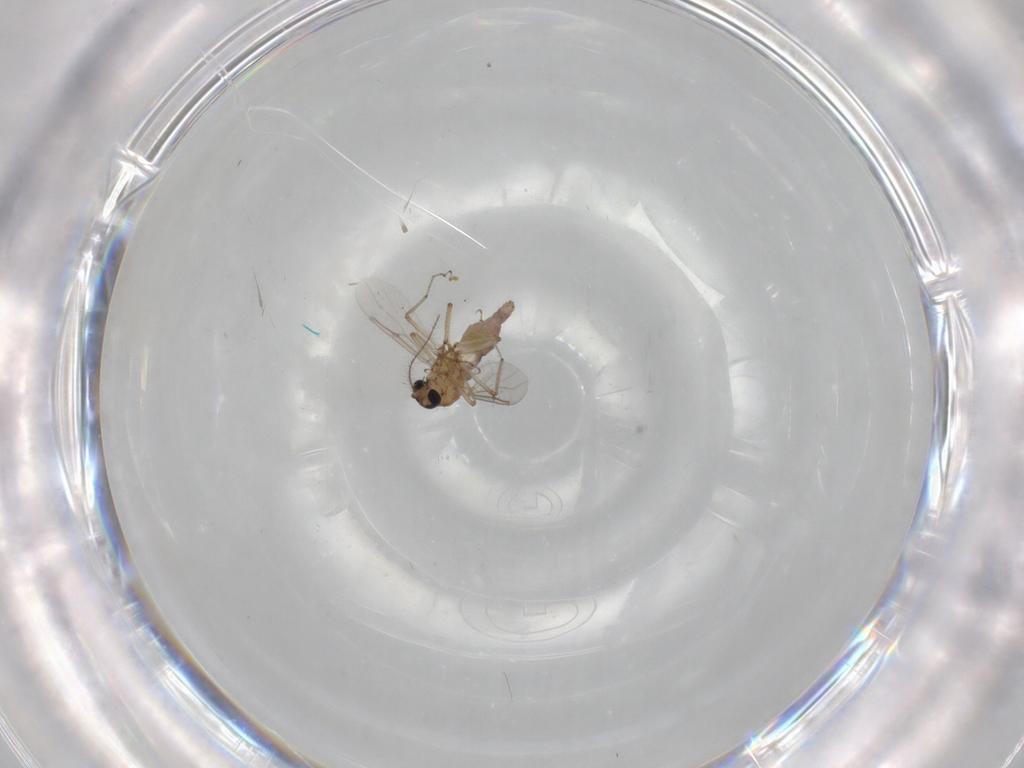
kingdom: Animalia
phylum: Arthropoda
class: Insecta
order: Diptera
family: Ceratopogonidae
